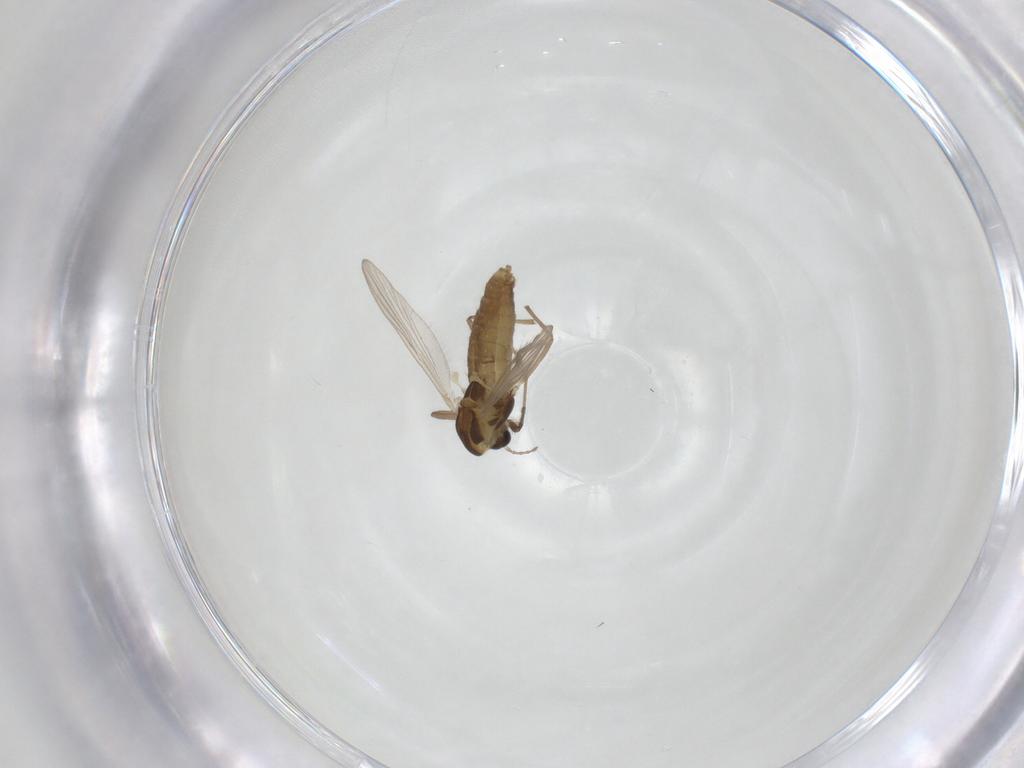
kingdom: Animalia
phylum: Arthropoda
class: Insecta
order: Diptera
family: Chironomidae
